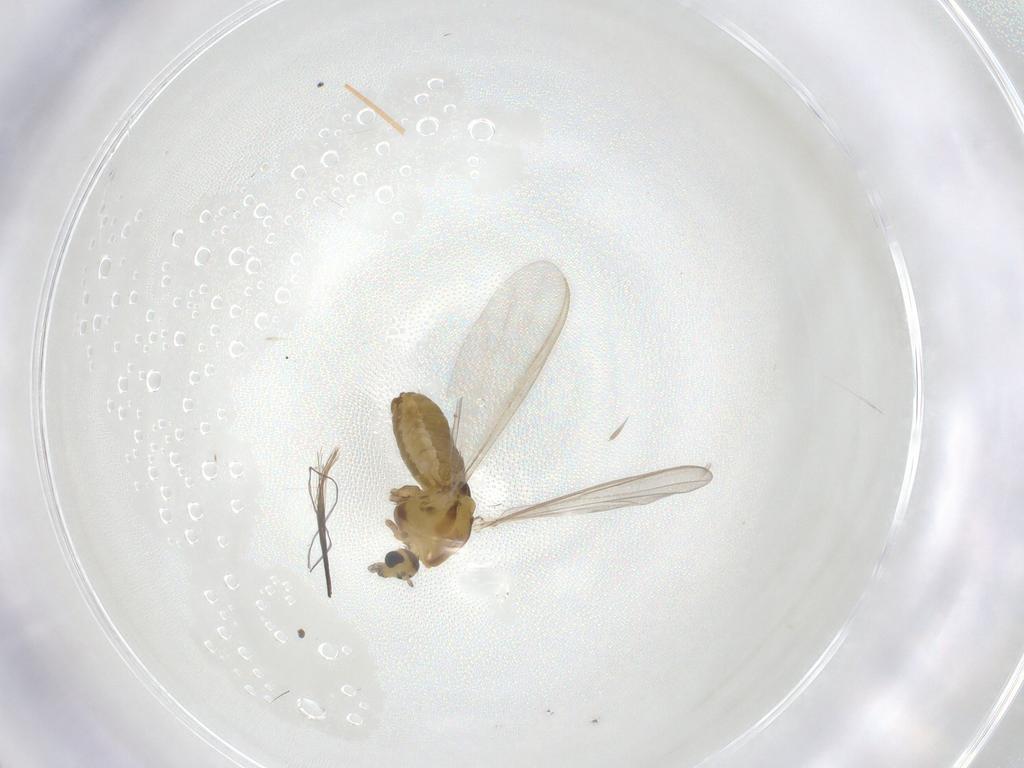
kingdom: Animalia
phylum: Arthropoda
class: Insecta
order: Diptera
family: Chironomidae
